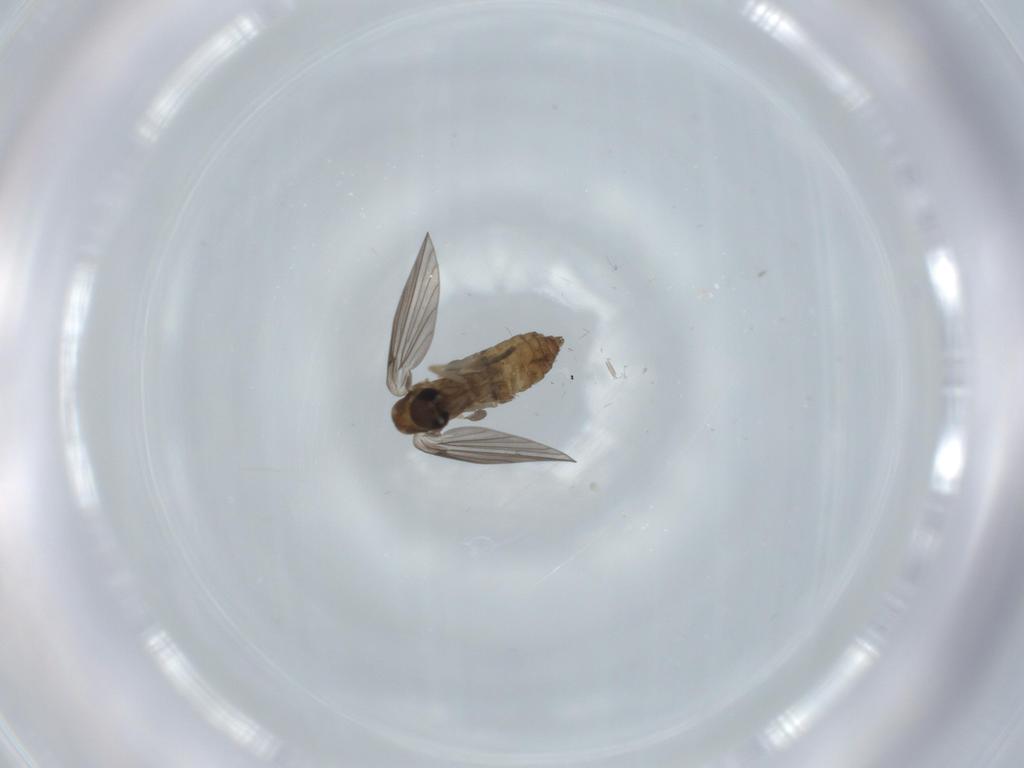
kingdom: Animalia
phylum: Arthropoda
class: Insecta
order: Diptera
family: Psychodidae
